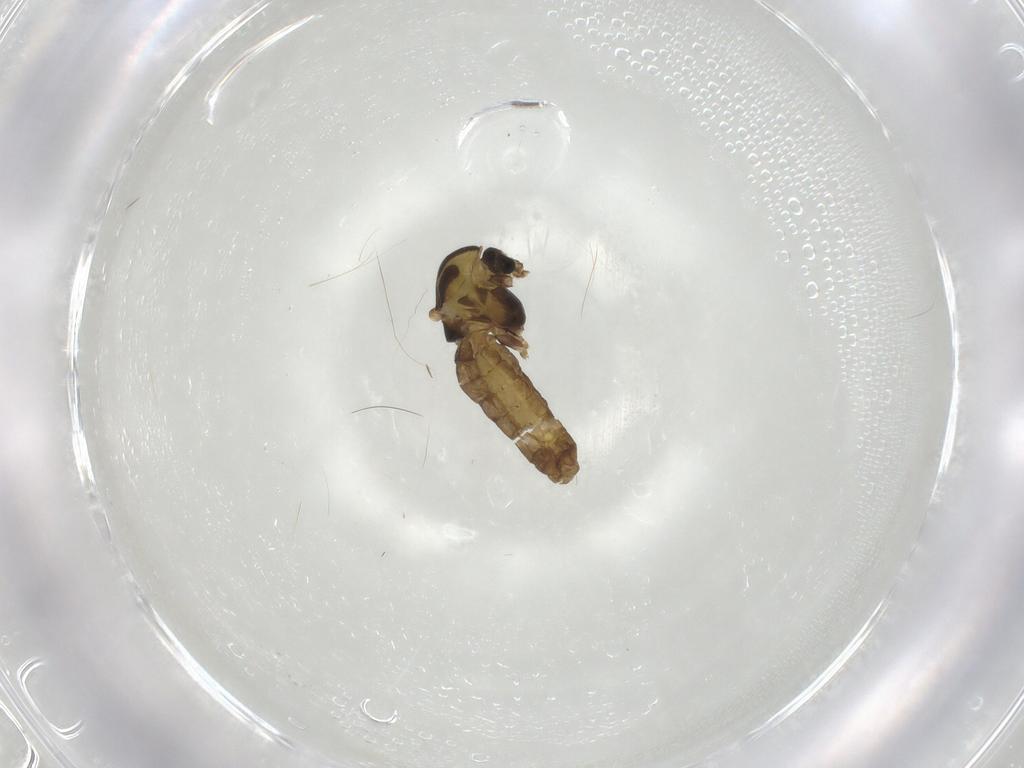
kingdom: Animalia
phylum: Arthropoda
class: Insecta
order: Diptera
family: Chironomidae
